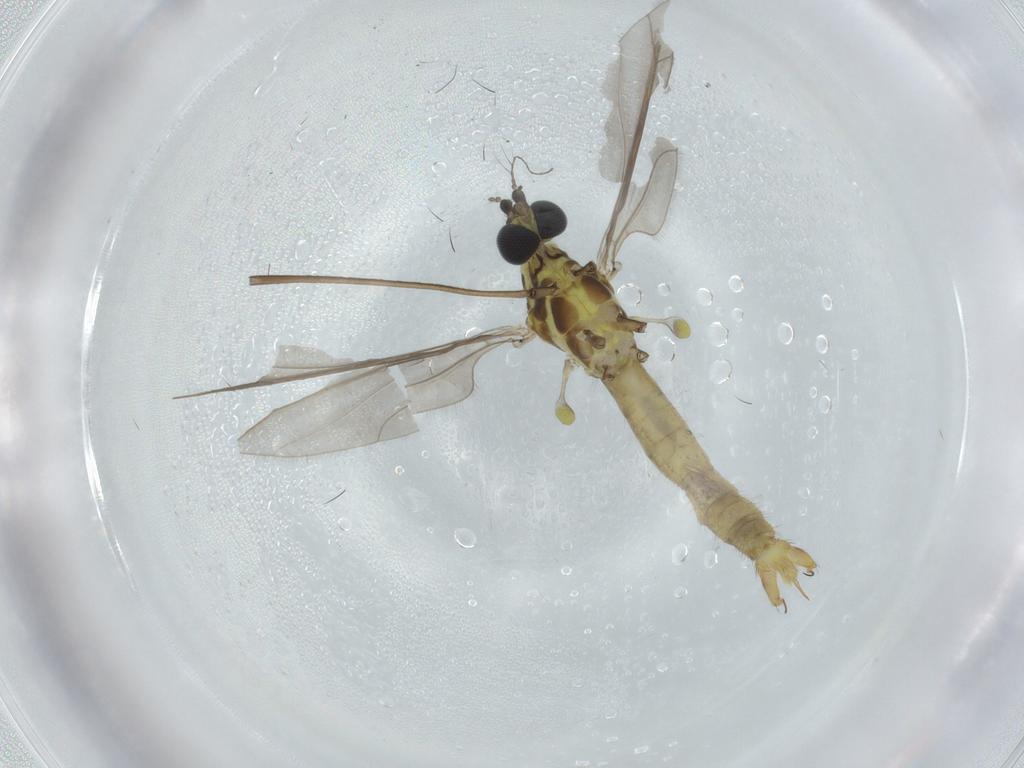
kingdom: Animalia
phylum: Arthropoda
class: Insecta
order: Diptera
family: Limoniidae
